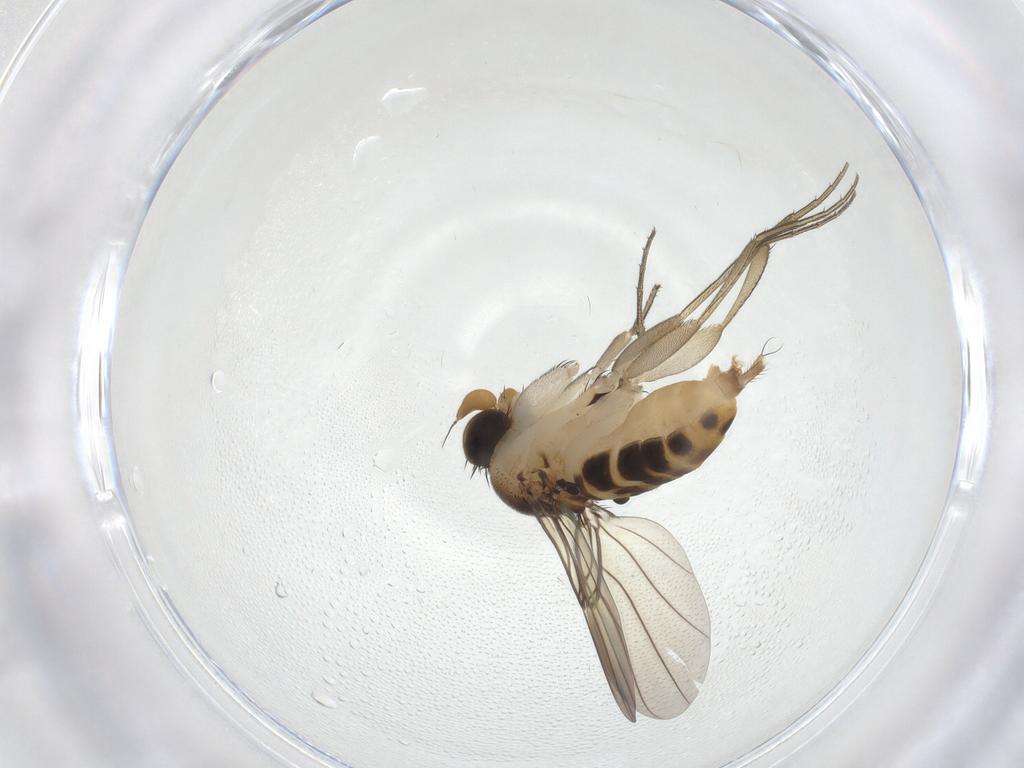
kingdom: Animalia
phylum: Arthropoda
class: Insecta
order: Diptera
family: Phoridae
